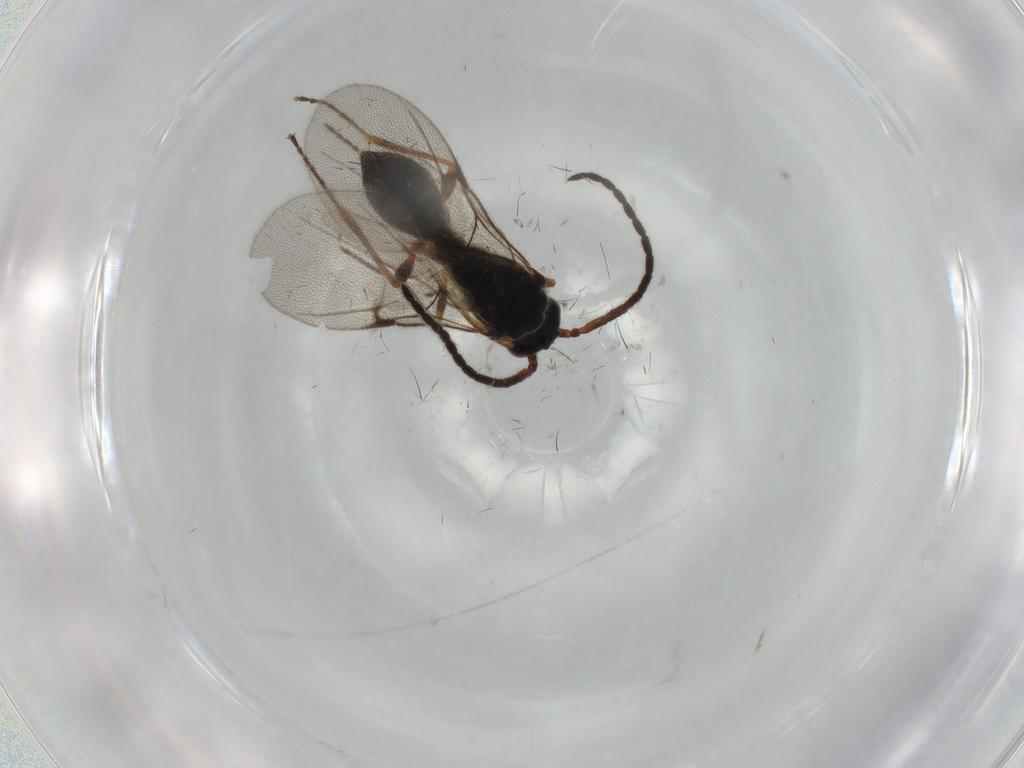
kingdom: Animalia
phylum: Arthropoda
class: Insecta
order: Hymenoptera
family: Diapriidae
